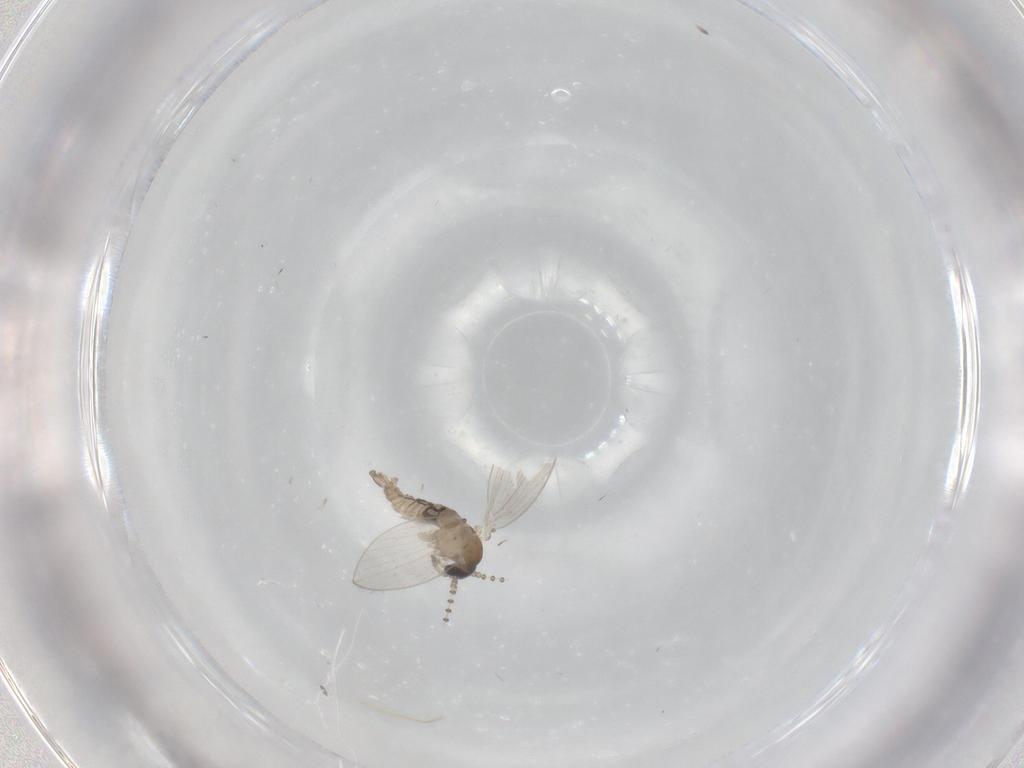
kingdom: Animalia
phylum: Arthropoda
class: Insecta
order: Diptera
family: Psychodidae
